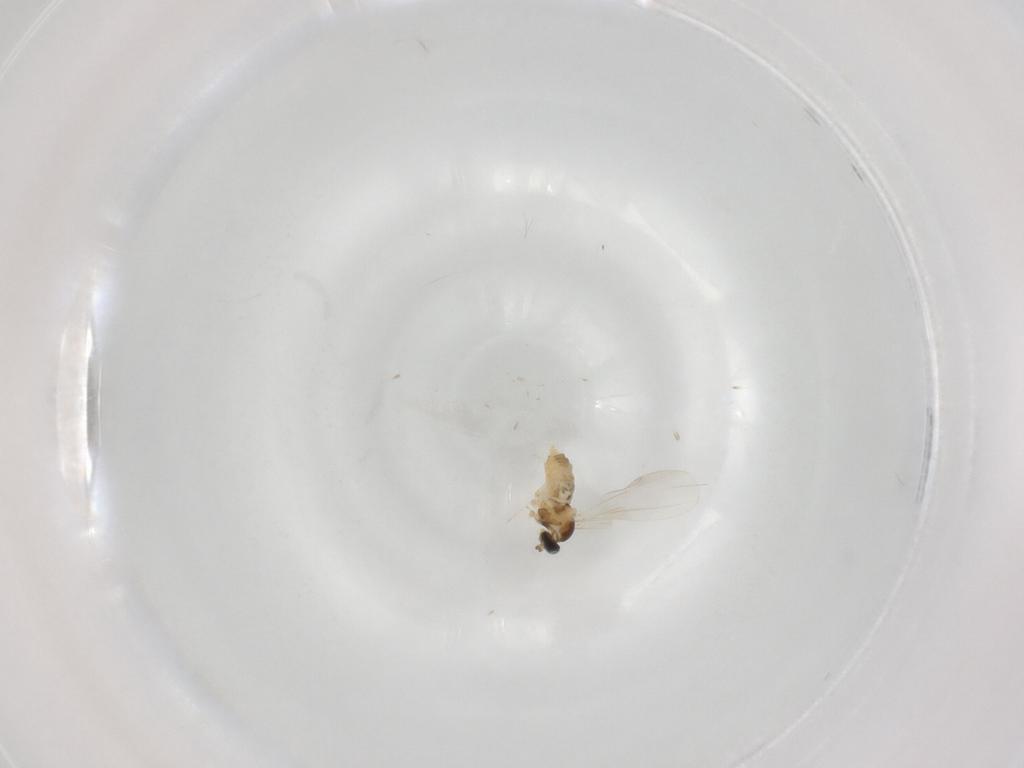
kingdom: Animalia
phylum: Arthropoda
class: Insecta
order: Diptera
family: Cecidomyiidae
